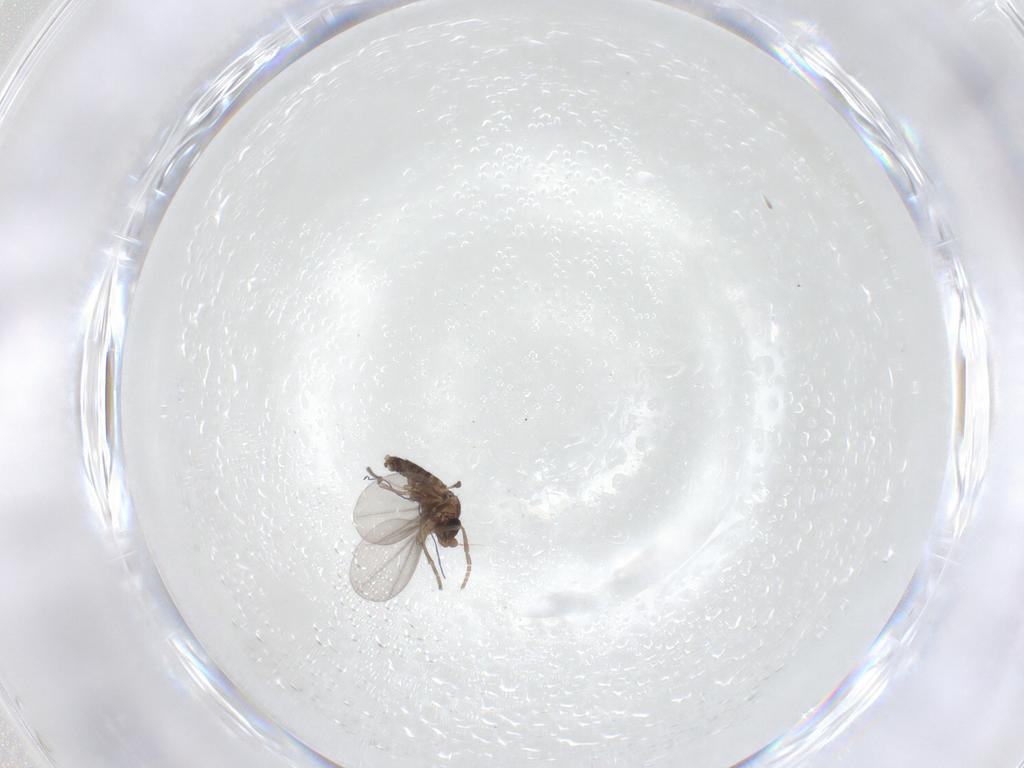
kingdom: Animalia
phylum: Arthropoda
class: Insecta
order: Diptera
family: Phoridae
